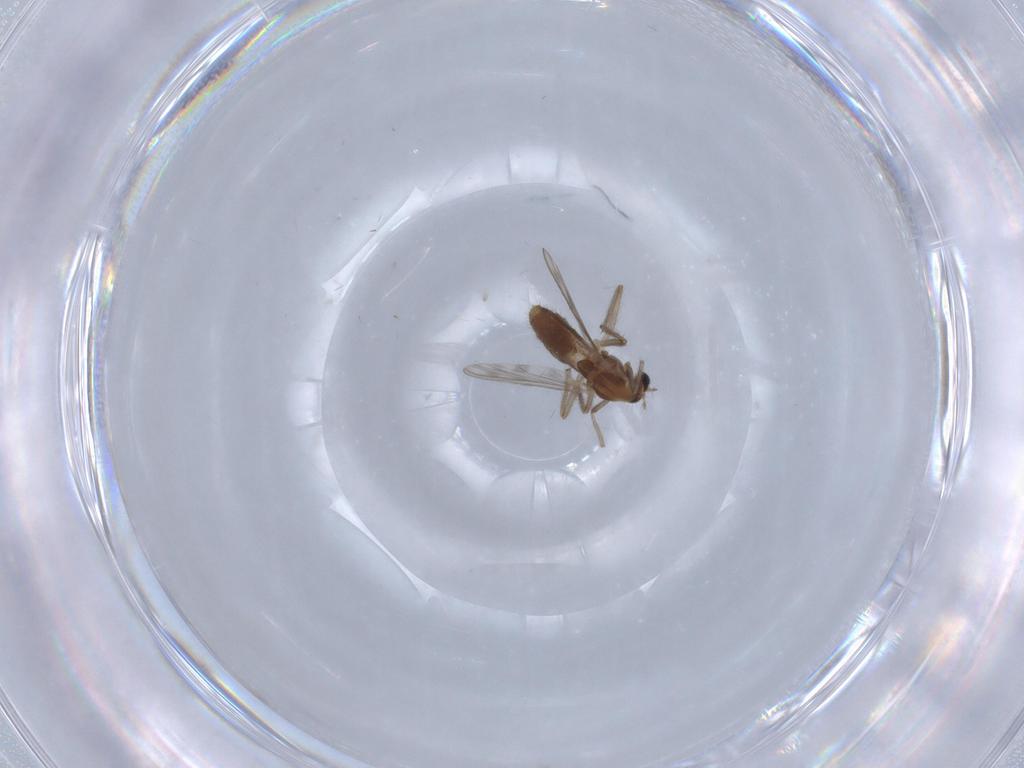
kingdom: Animalia
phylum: Arthropoda
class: Insecta
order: Diptera
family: Chironomidae
